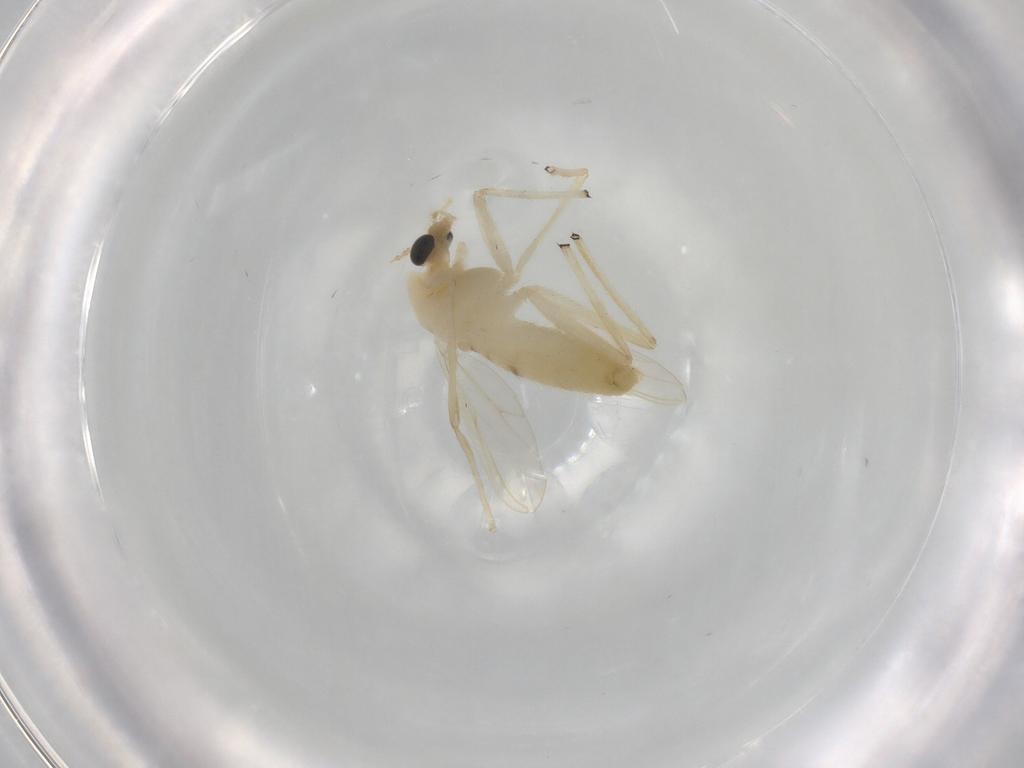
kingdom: Animalia
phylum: Arthropoda
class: Insecta
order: Diptera
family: Chironomidae
